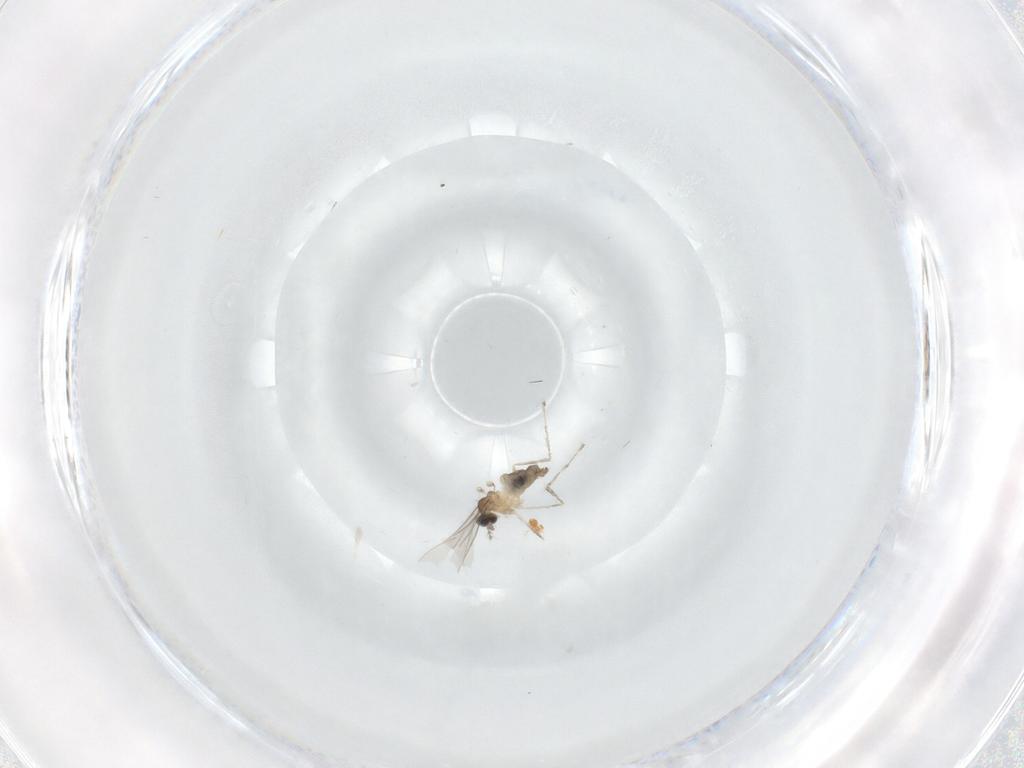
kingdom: Animalia
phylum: Arthropoda
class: Insecta
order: Diptera
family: Cecidomyiidae
